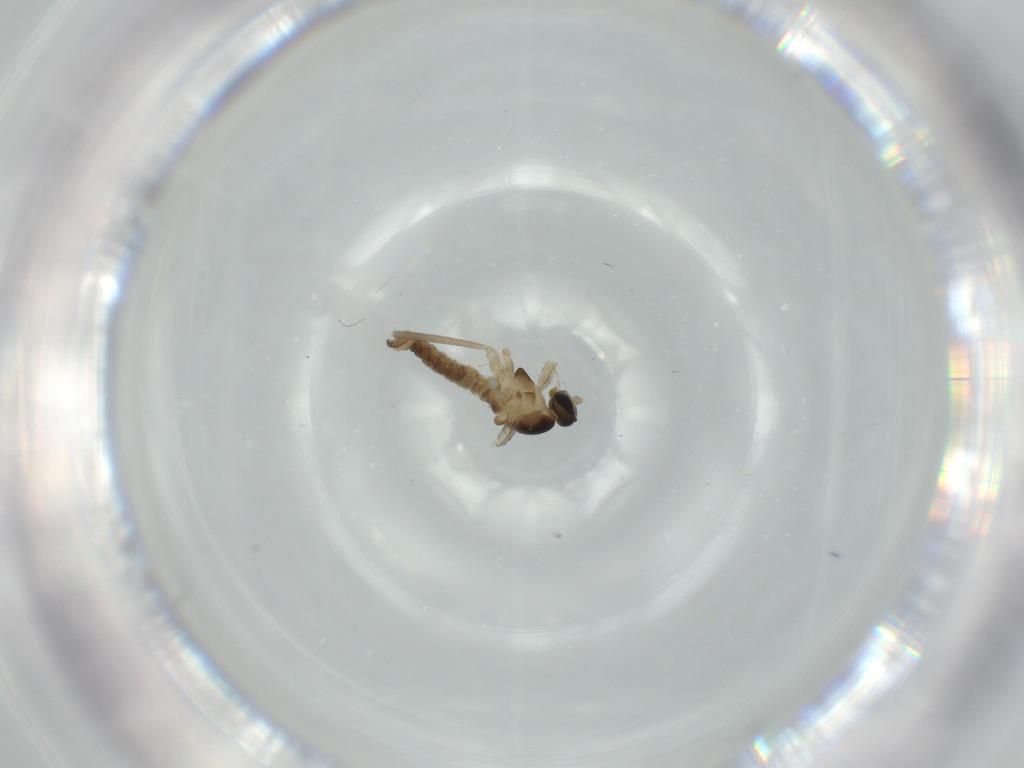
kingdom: Animalia
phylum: Arthropoda
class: Insecta
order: Diptera
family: Cecidomyiidae
